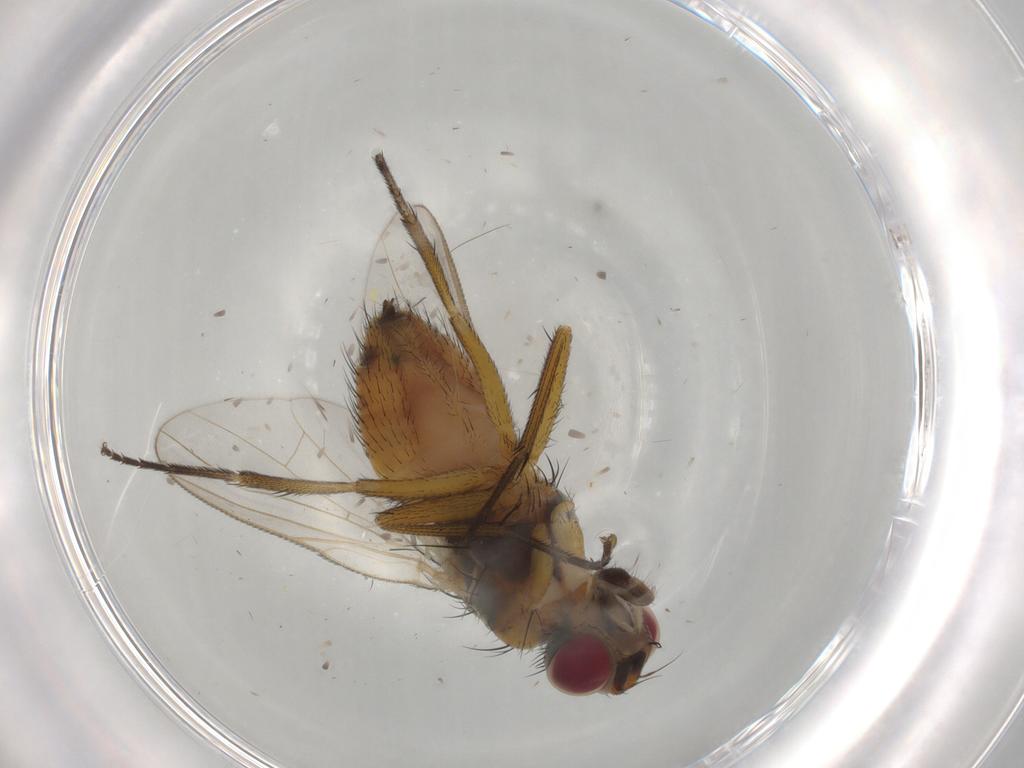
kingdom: Animalia
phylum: Arthropoda
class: Insecta
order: Diptera
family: Muscidae
